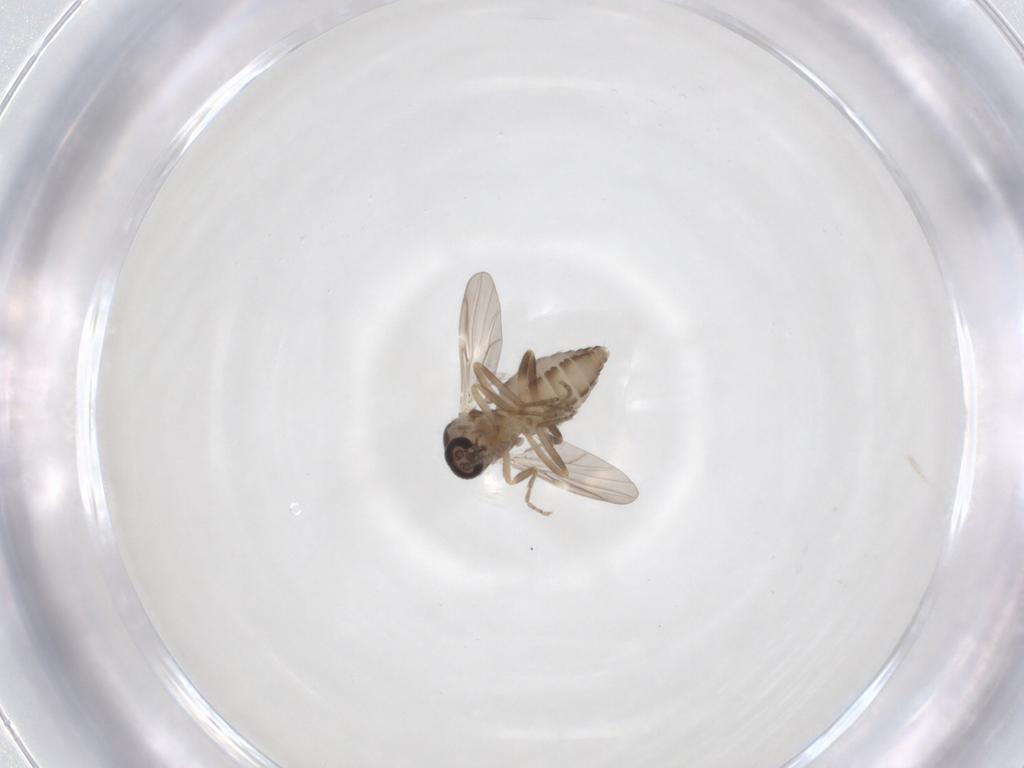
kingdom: Animalia
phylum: Arthropoda
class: Insecta
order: Diptera
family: Ceratopogonidae
